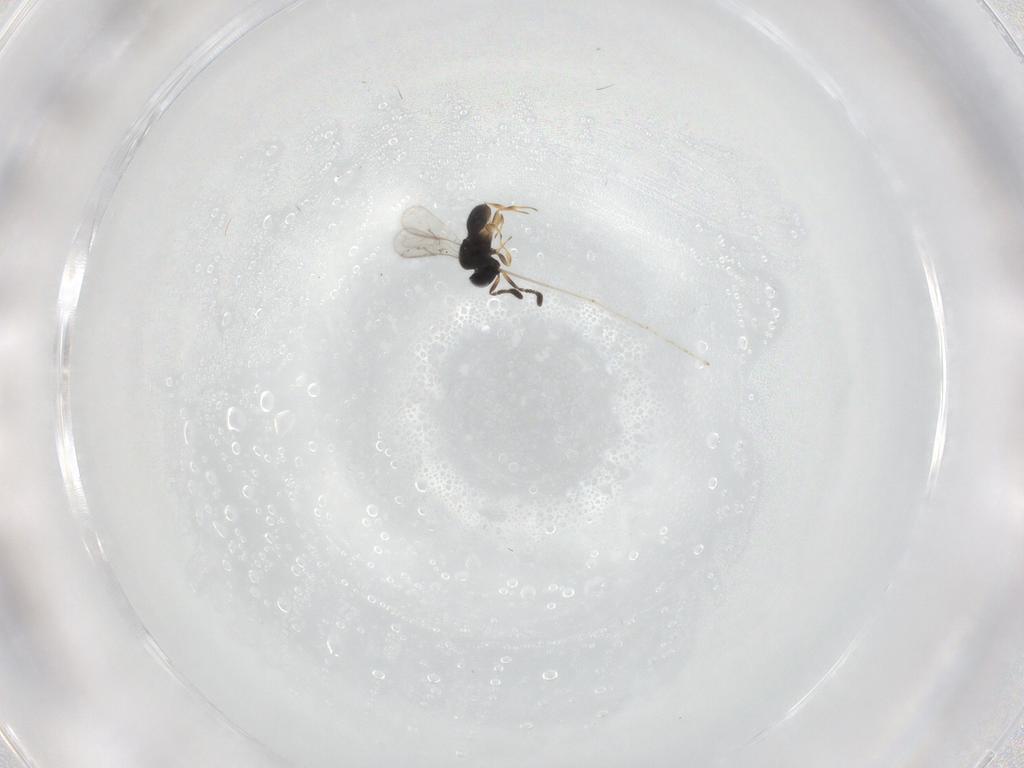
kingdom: Animalia
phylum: Arthropoda
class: Insecta
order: Hymenoptera
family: Scelionidae
